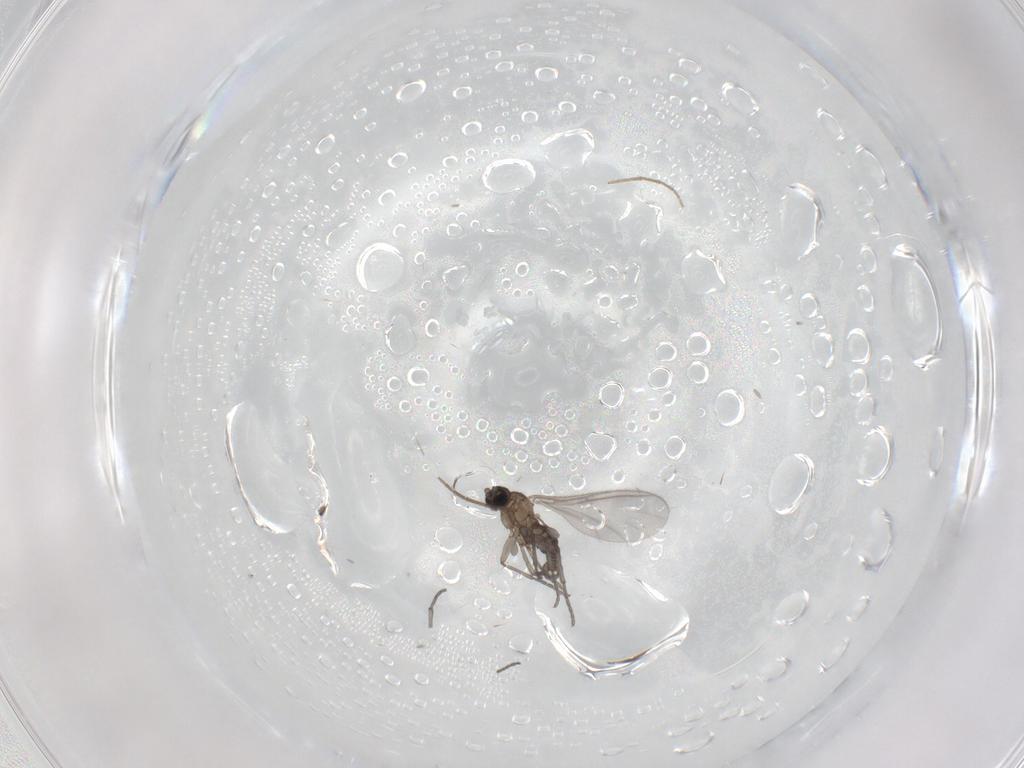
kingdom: Animalia
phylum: Arthropoda
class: Insecta
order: Diptera
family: Sciaridae
